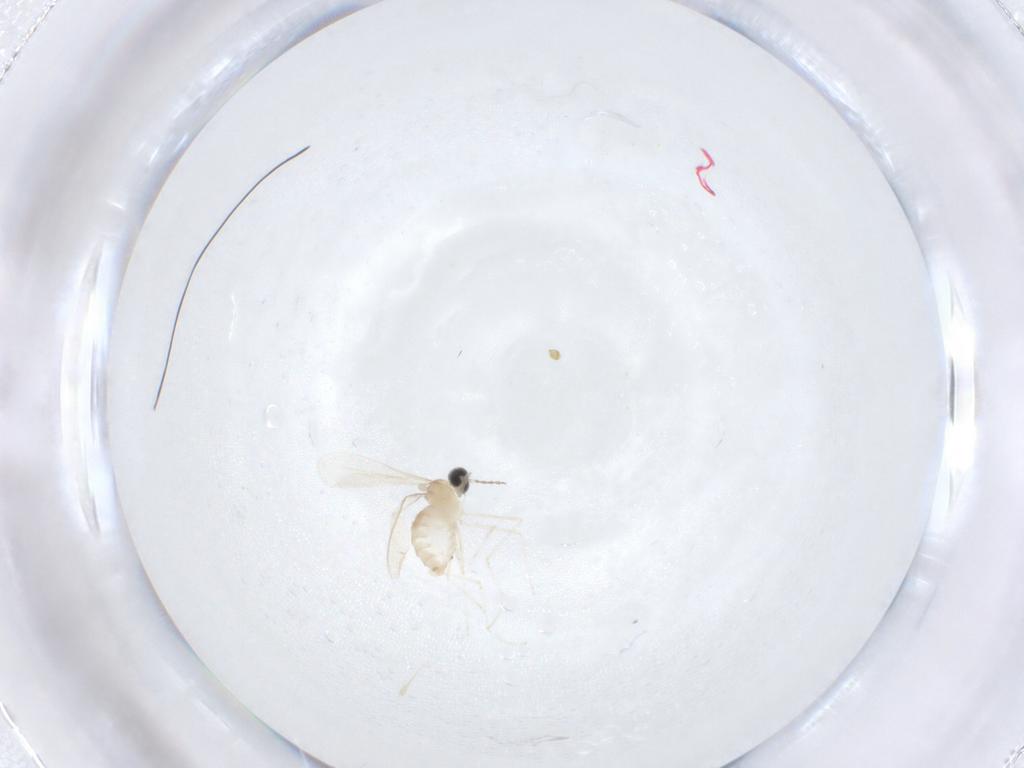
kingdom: Animalia
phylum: Arthropoda
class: Insecta
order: Diptera
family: Cecidomyiidae
